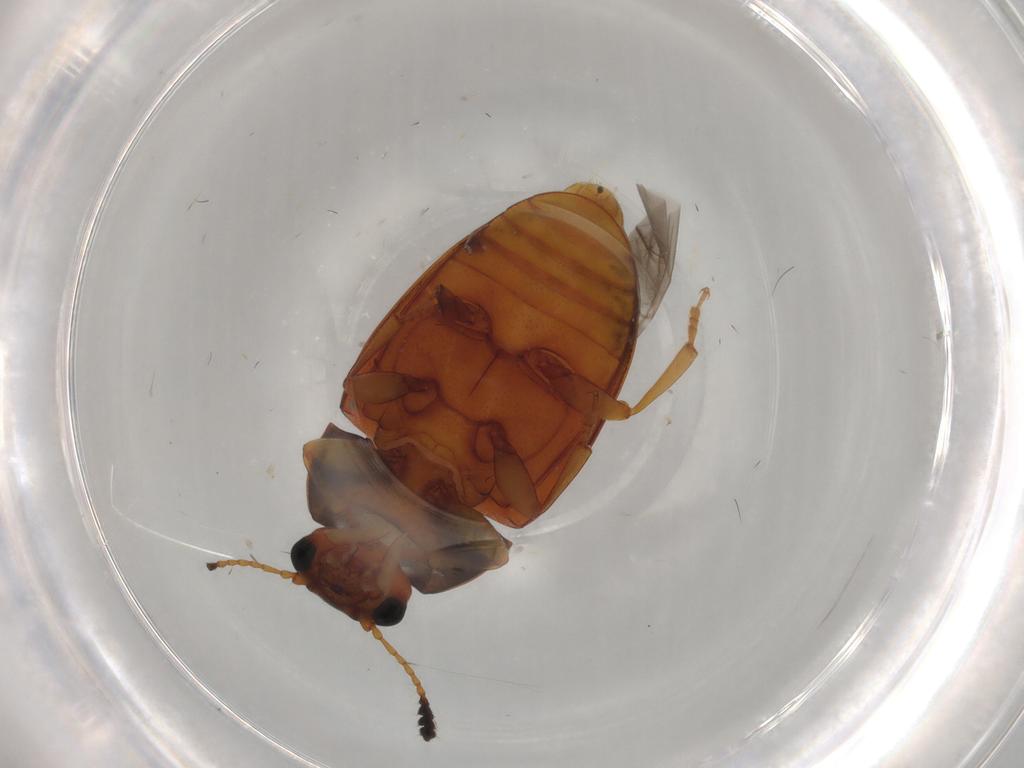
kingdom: Animalia
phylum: Arthropoda
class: Insecta
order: Coleoptera
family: Erotylidae
